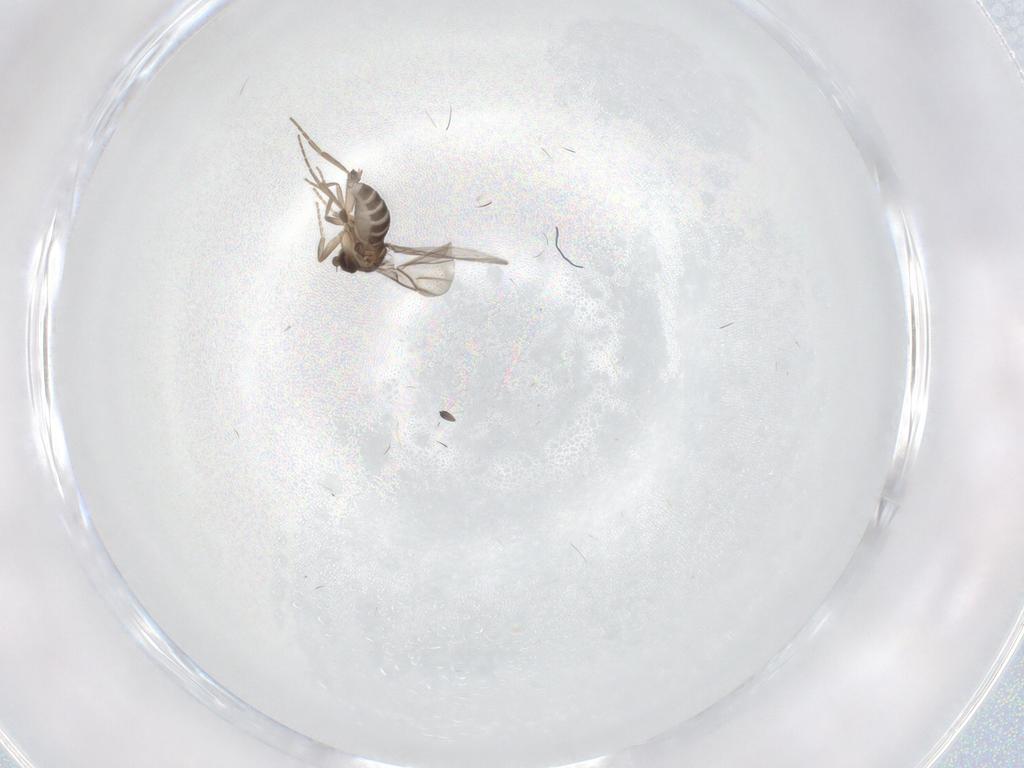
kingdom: Animalia
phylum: Arthropoda
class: Insecta
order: Diptera
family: Phoridae
